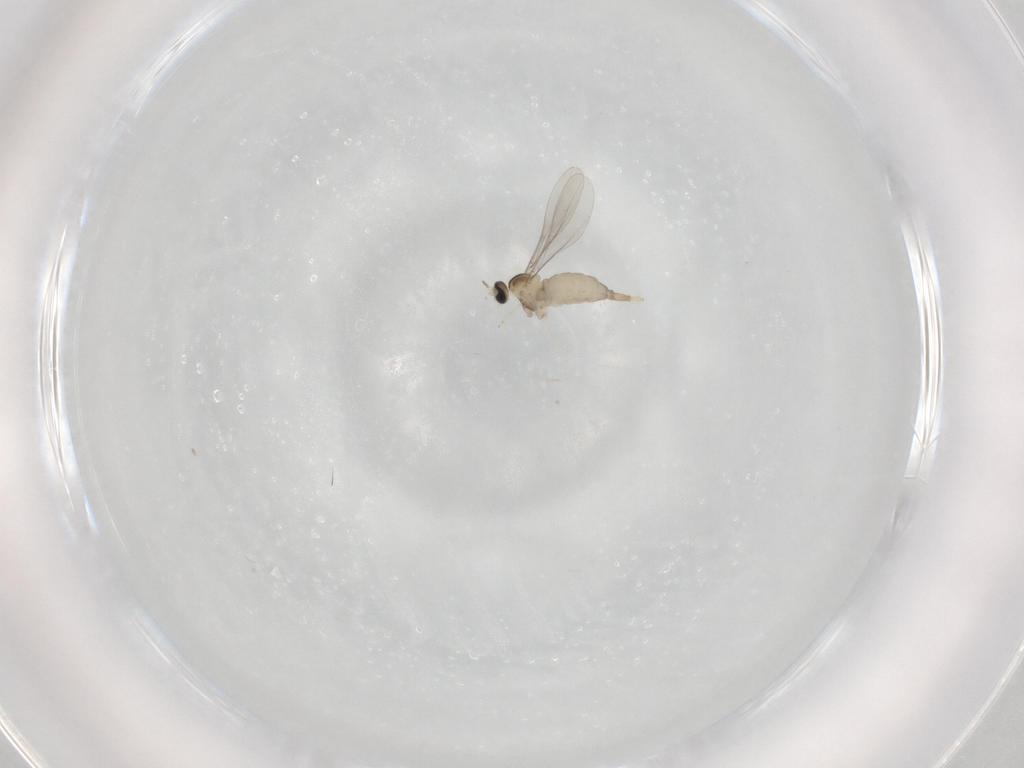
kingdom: Animalia
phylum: Arthropoda
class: Insecta
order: Diptera
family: Cecidomyiidae
